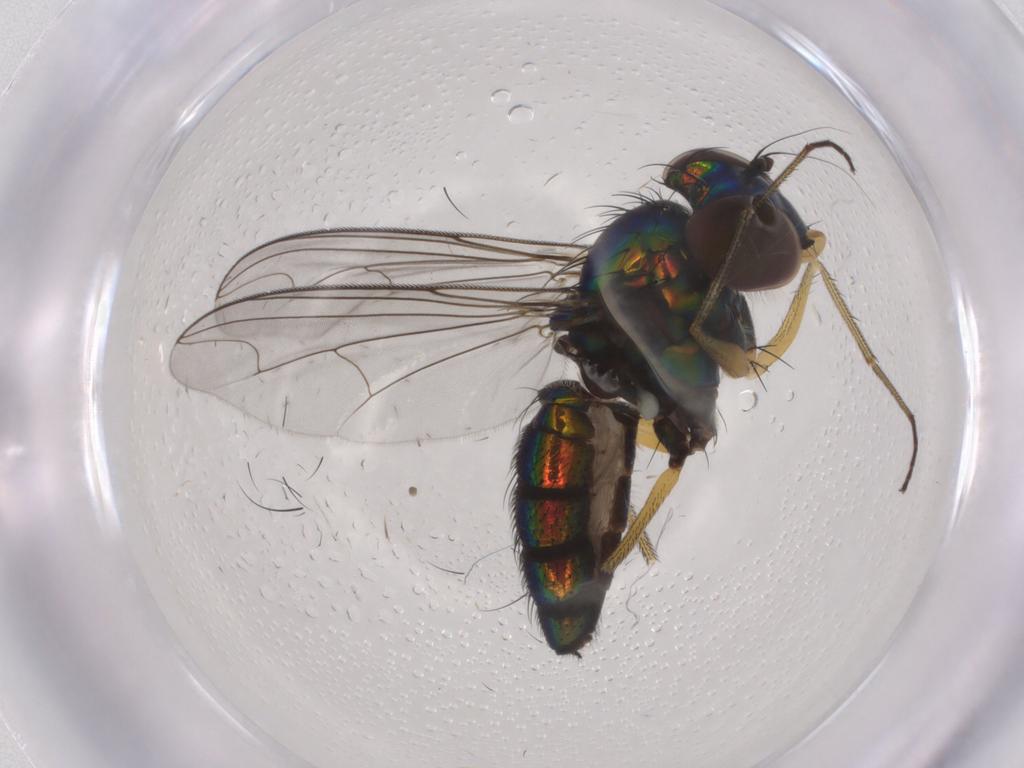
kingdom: Animalia
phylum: Arthropoda
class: Insecta
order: Diptera
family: Dolichopodidae
